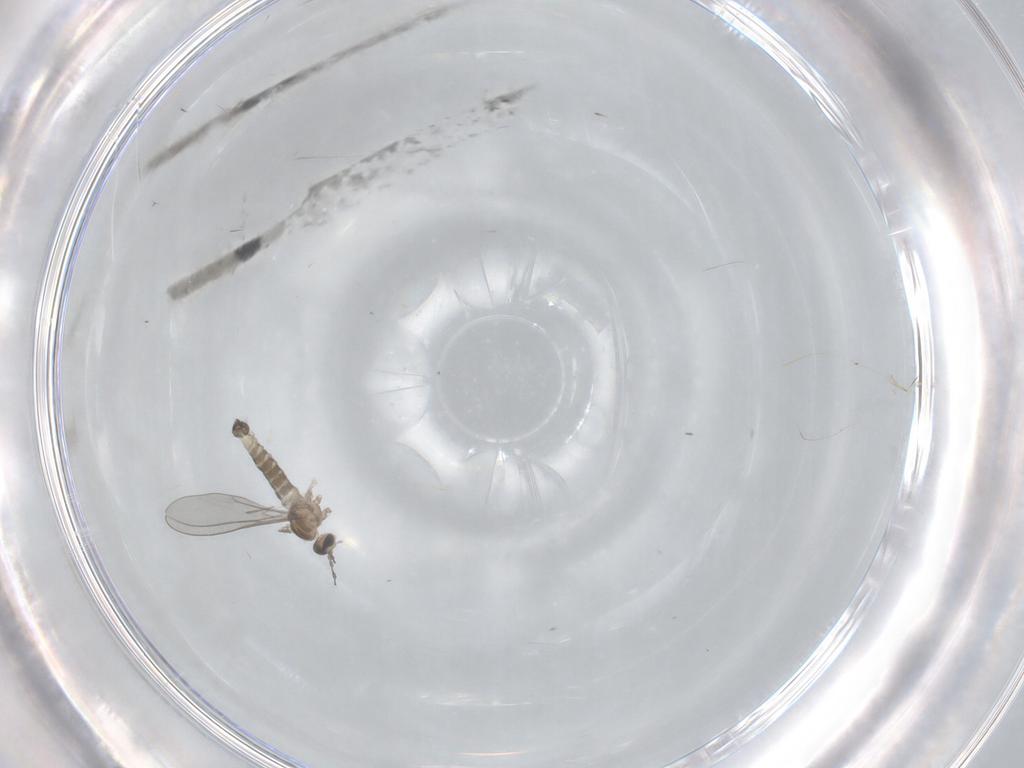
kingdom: Animalia
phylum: Arthropoda
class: Insecta
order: Diptera
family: Cecidomyiidae
